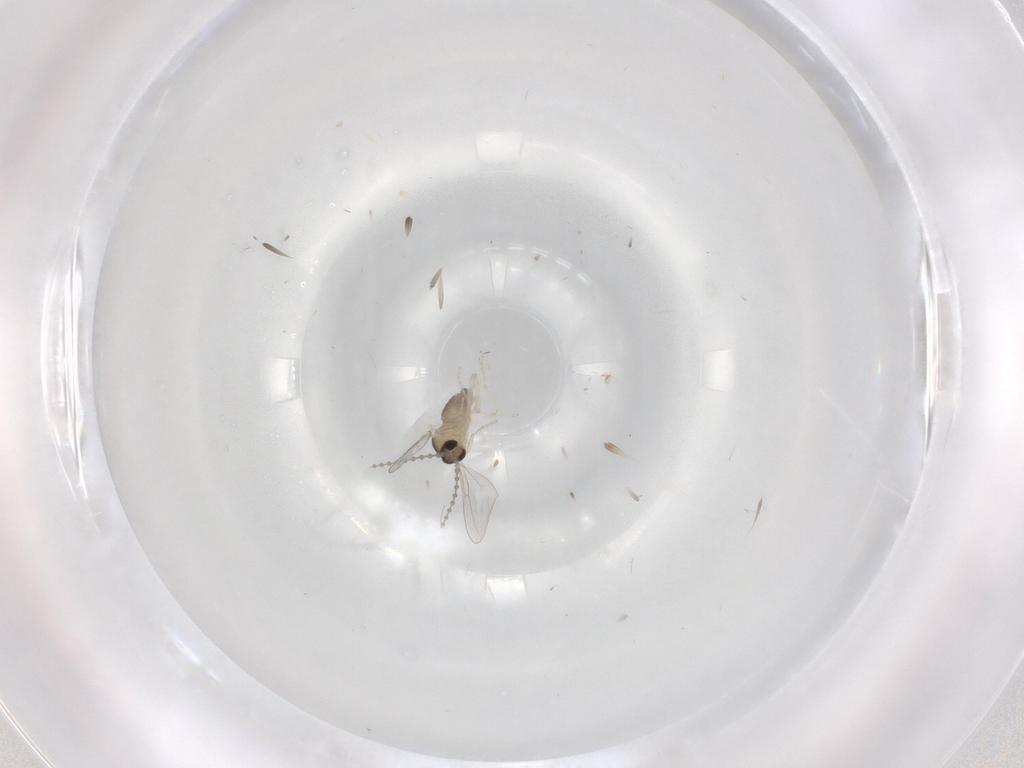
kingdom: Animalia
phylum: Arthropoda
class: Insecta
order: Diptera
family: Cecidomyiidae
